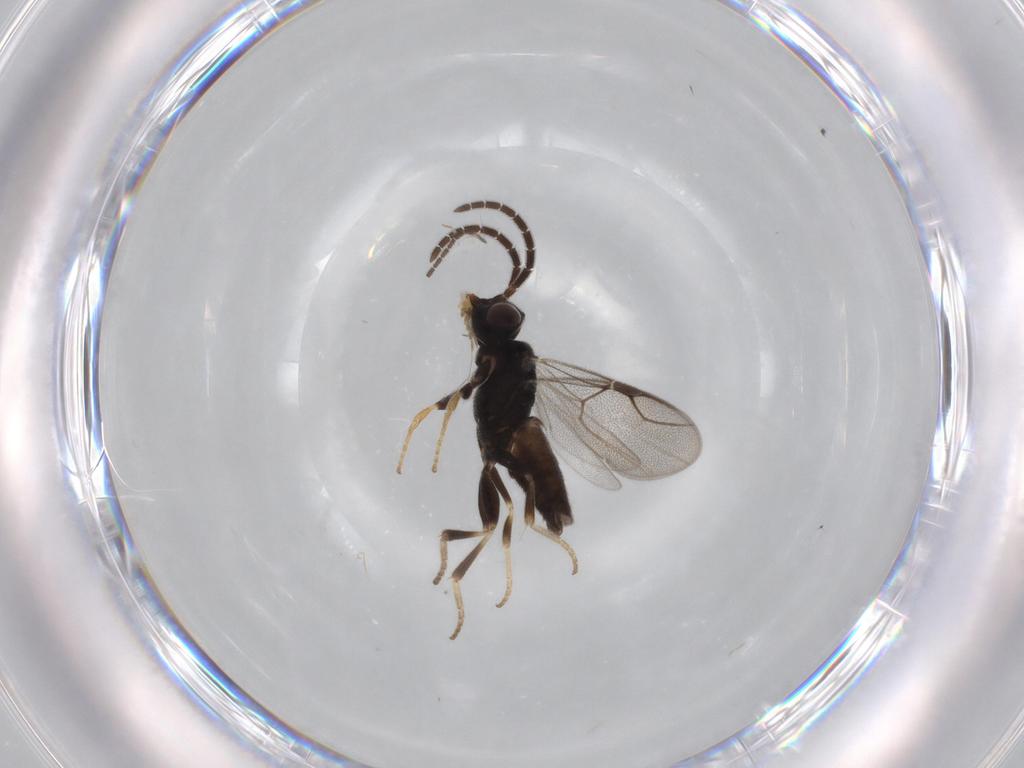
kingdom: Animalia
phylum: Arthropoda
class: Insecta
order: Hymenoptera
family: Dryinidae
